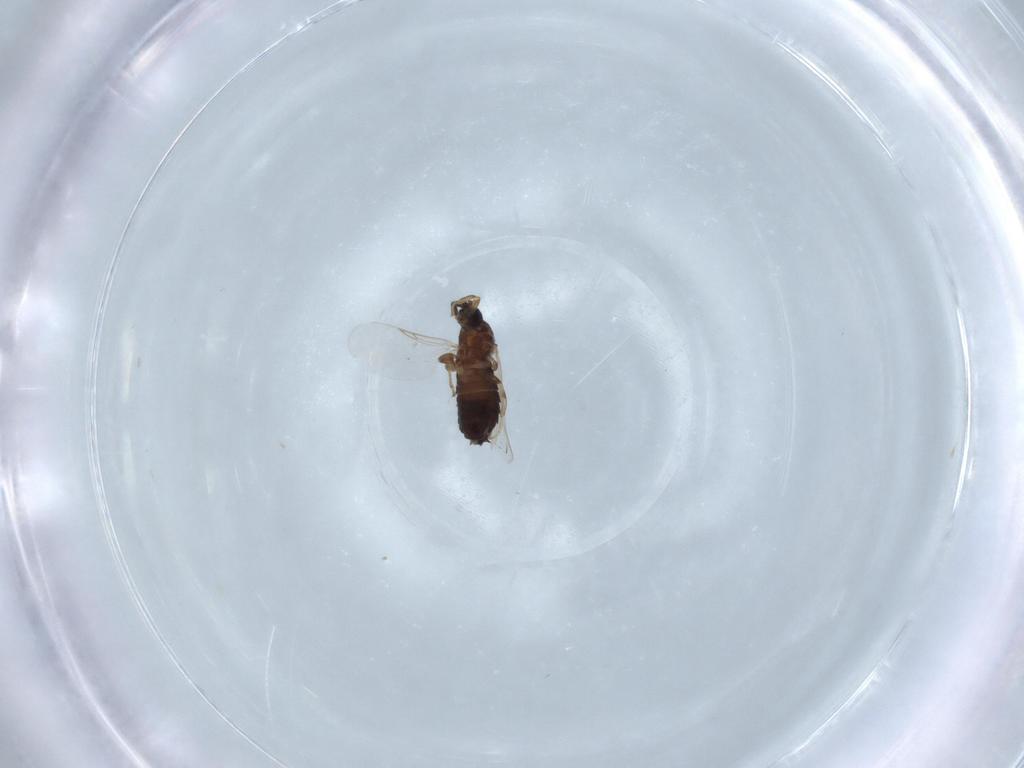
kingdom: Animalia
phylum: Arthropoda
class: Insecta
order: Diptera
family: Scatopsidae
